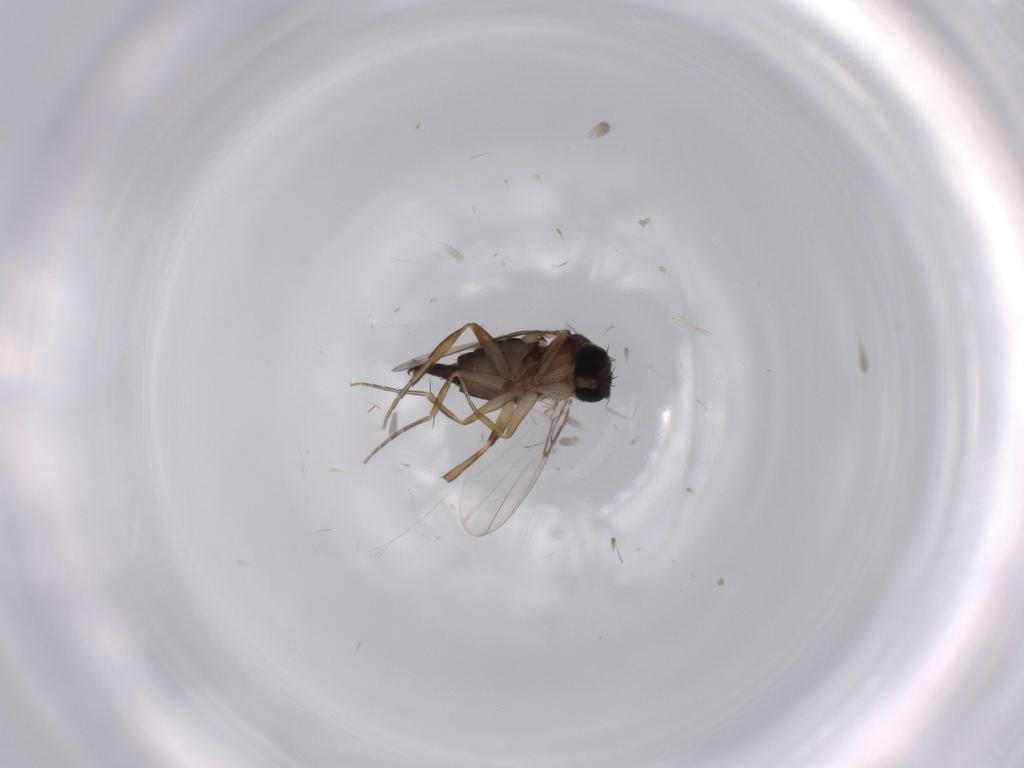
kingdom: Animalia
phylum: Arthropoda
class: Insecta
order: Diptera
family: Phoridae
